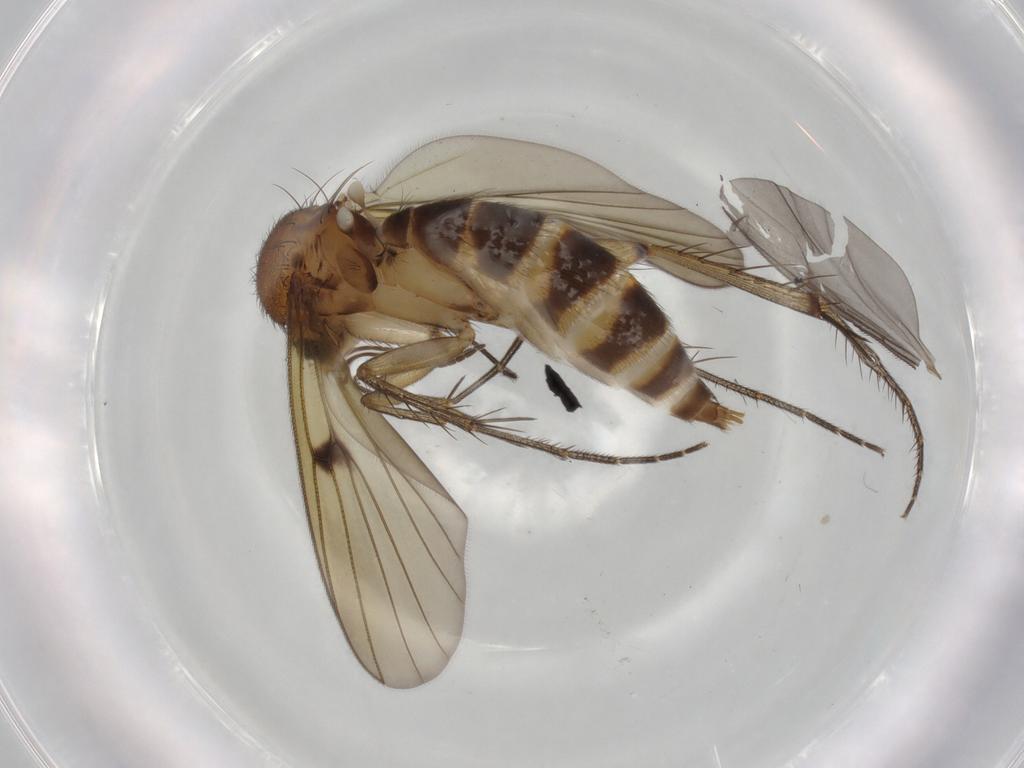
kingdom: Animalia
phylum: Arthropoda
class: Insecta
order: Diptera
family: Mycetophilidae
